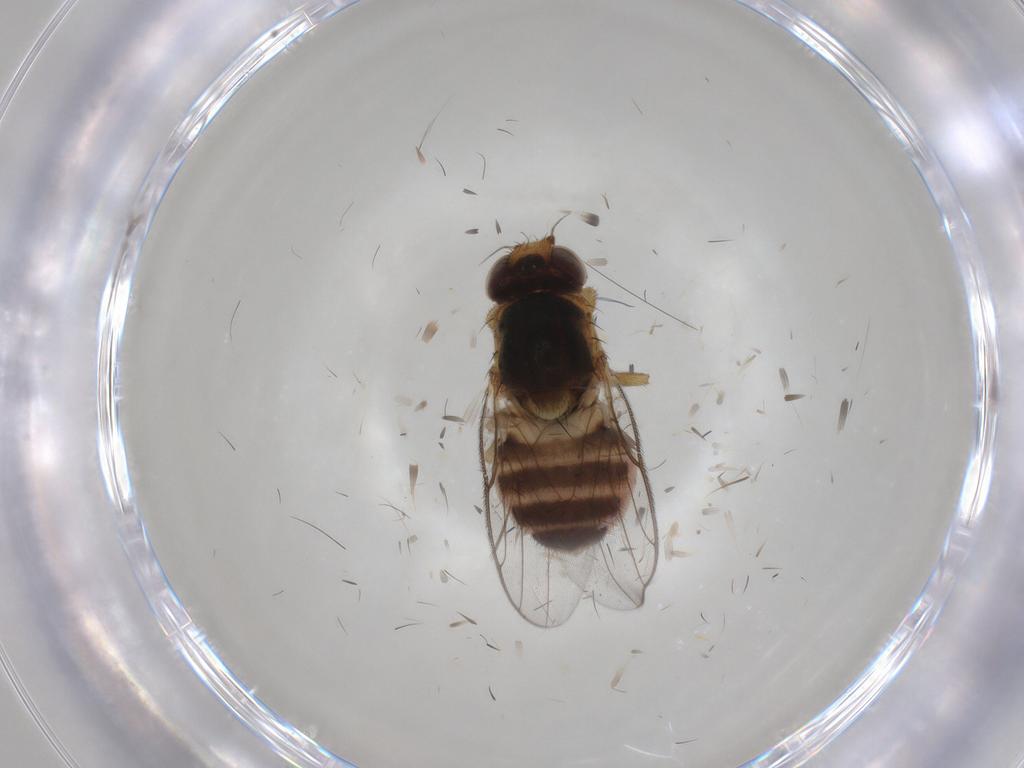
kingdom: Animalia
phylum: Arthropoda
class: Insecta
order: Diptera
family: Chloropidae
